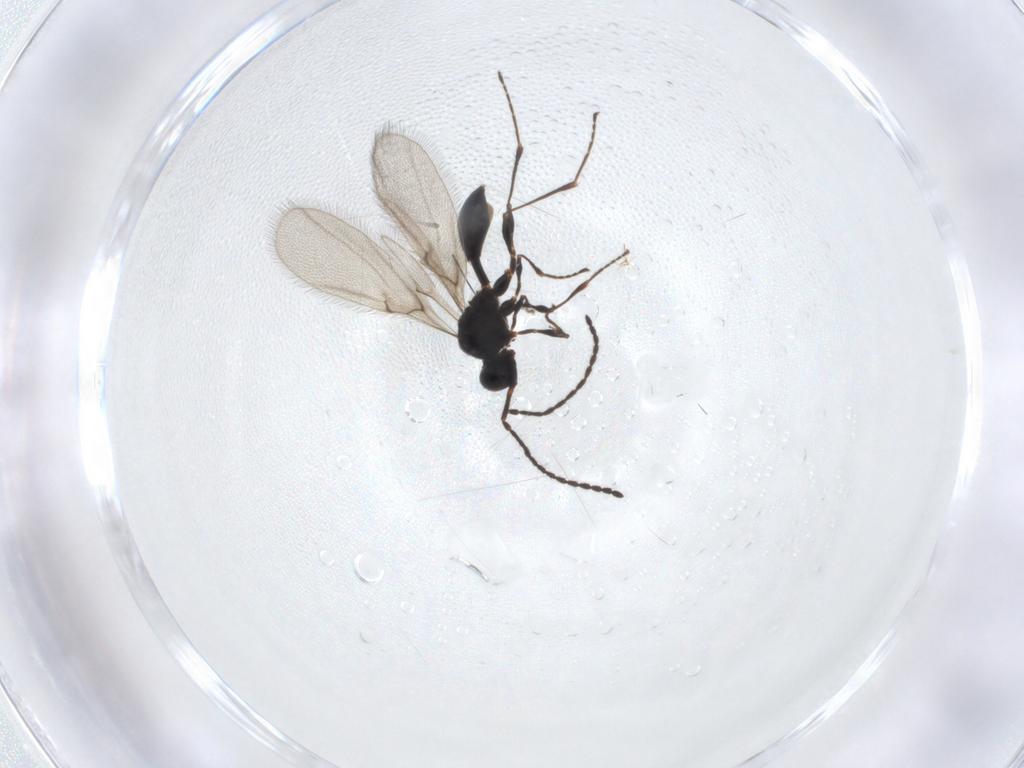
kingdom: Animalia
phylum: Arthropoda
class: Insecta
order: Hymenoptera
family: Diapriidae
